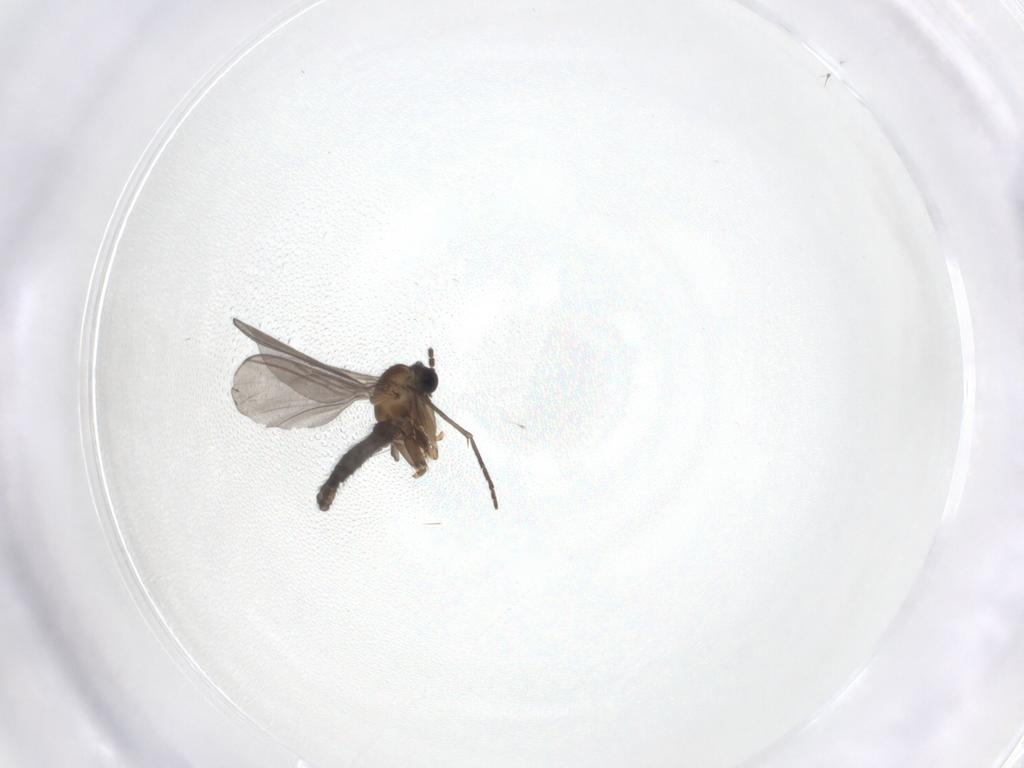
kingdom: Animalia
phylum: Arthropoda
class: Insecta
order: Diptera
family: Sciaridae
